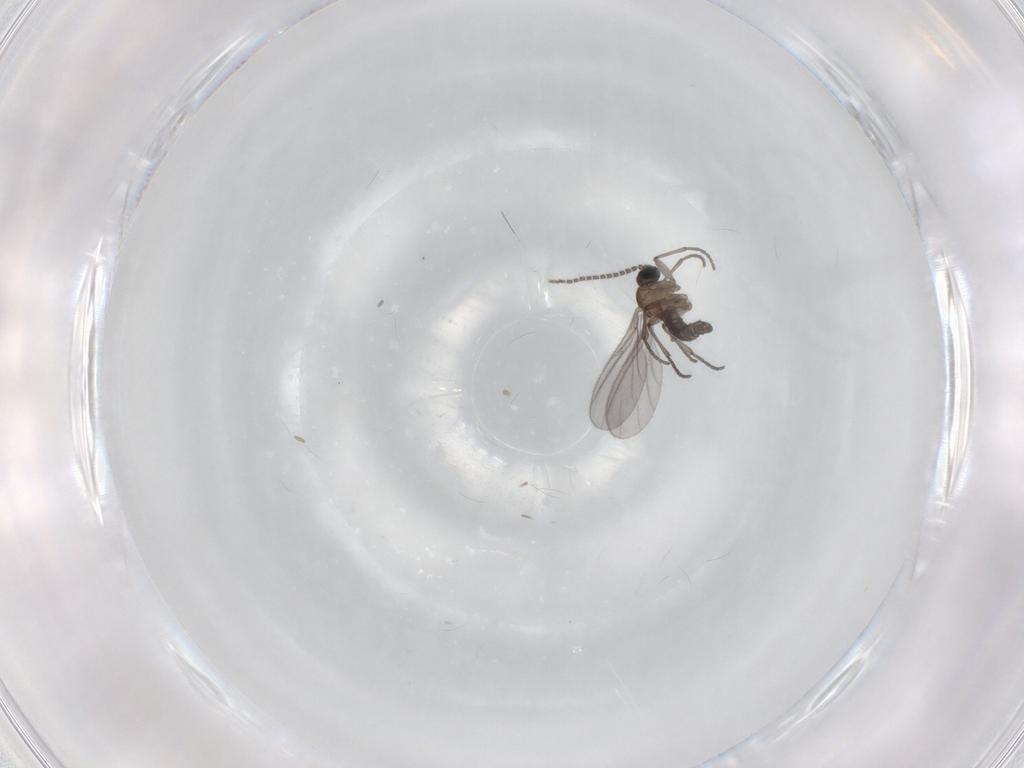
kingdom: Animalia
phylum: Arthropoda
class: Insecta
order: Diptera
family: Sciaridae
